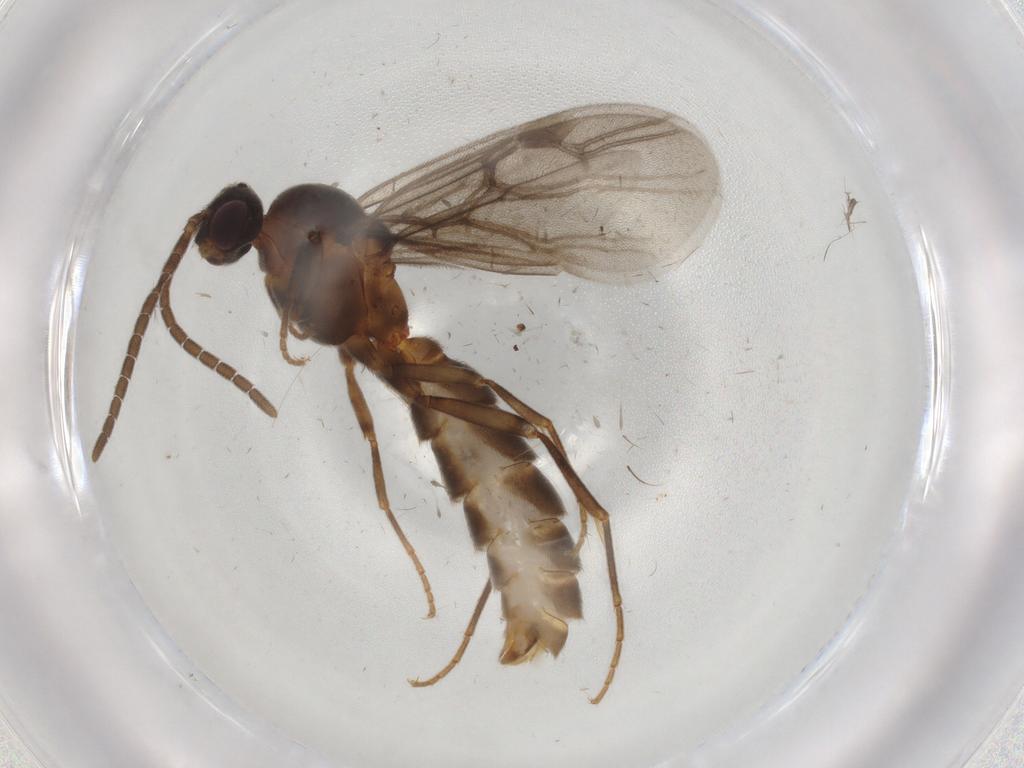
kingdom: Animalia
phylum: Arthropoda
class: Insecta
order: Hymenoptera
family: Formicidae
